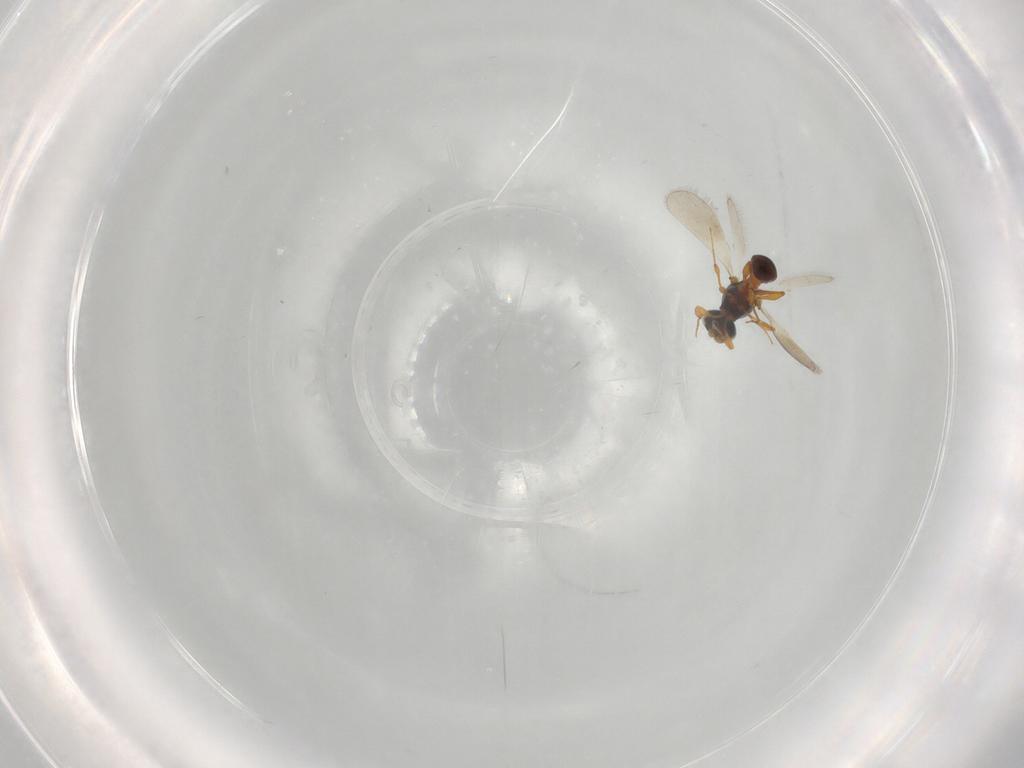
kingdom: Animalia
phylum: Arthropoda
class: Insecta
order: Hymenoptera
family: Platygastridae
